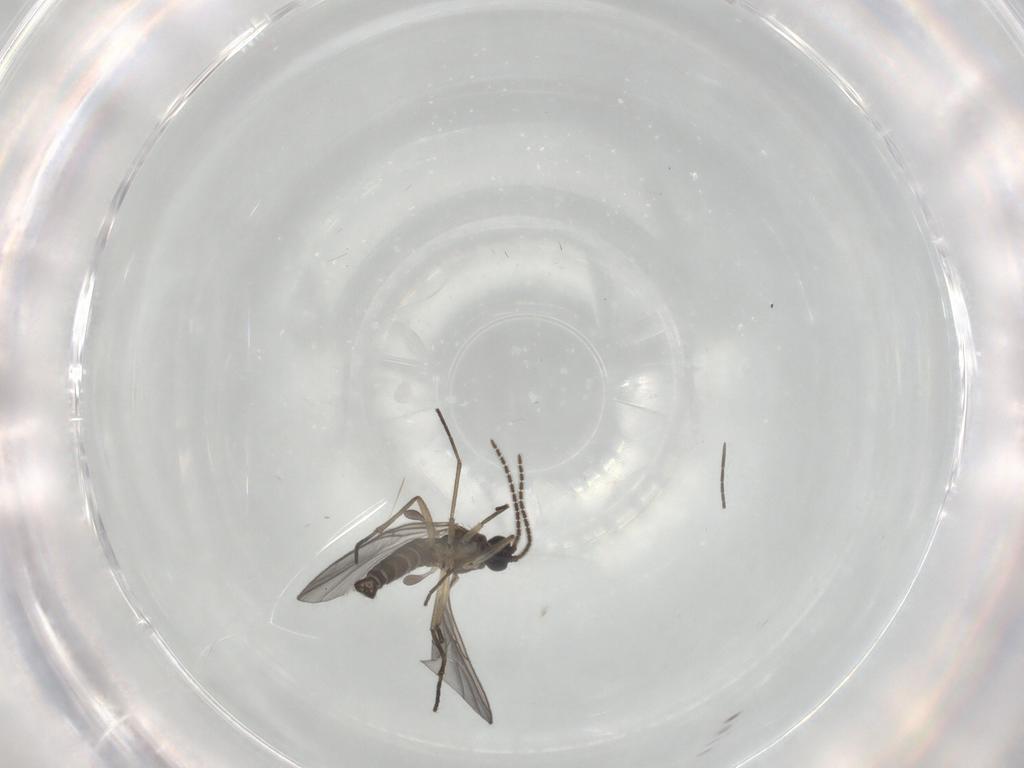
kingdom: Animalia
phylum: Arthropoda
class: Insecta
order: Diptera
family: Sciaridae
